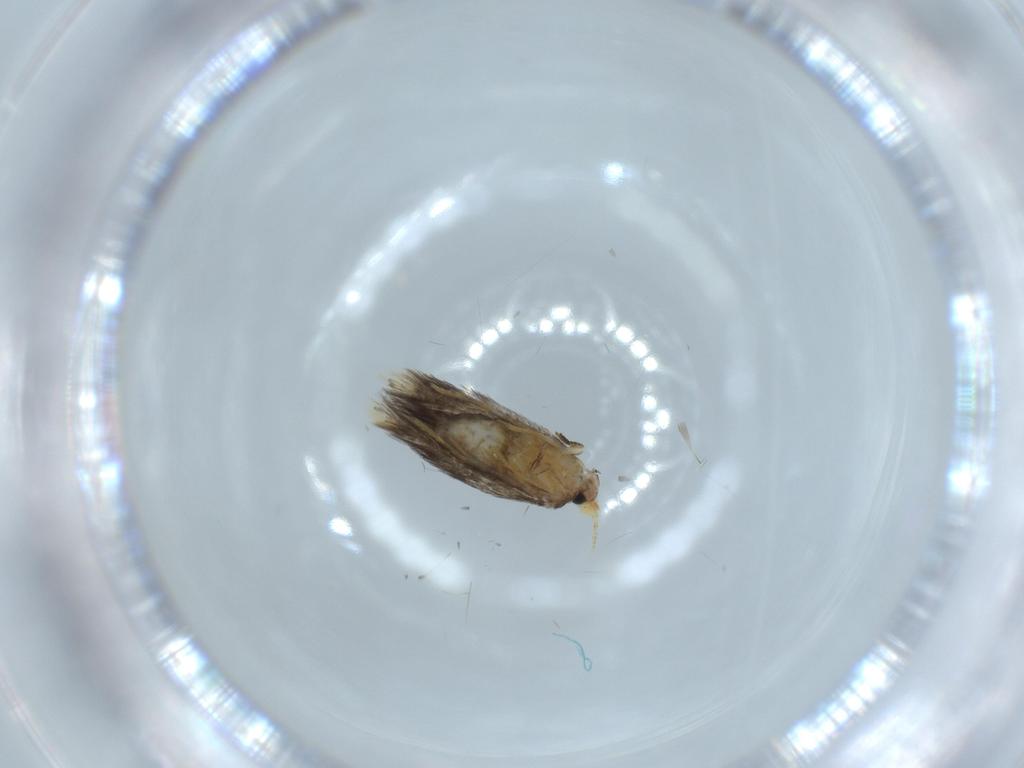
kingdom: Animalia
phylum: Arthropoda
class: Insecta
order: Lepidoptera
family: Nepticulidae
